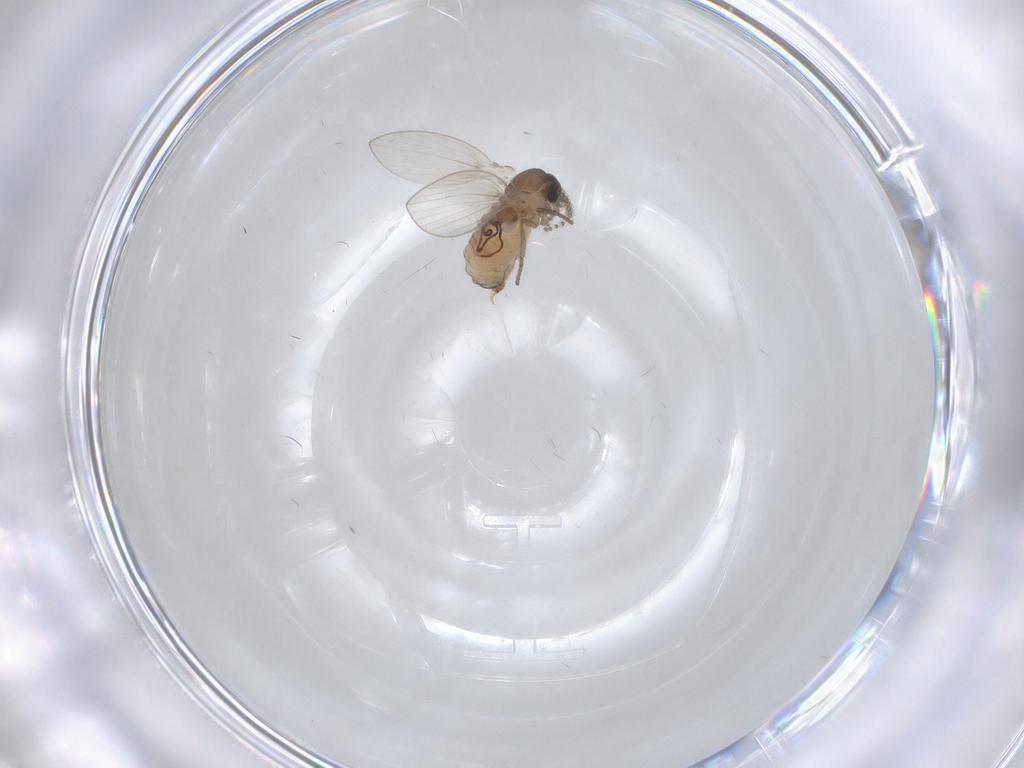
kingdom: Animalia
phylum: Arthropoda
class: Insecta
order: Diptera
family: Psychodidae
